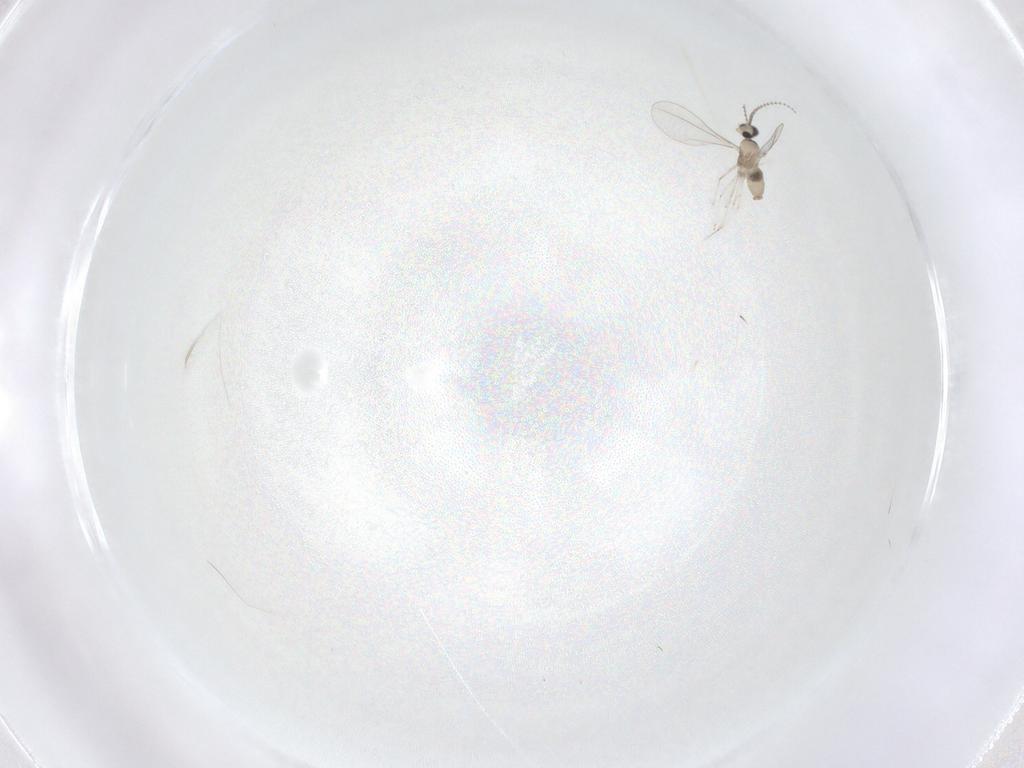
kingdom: Animalia
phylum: Arthropoda
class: Insecta
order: Diptera
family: Cecidomyiidae
